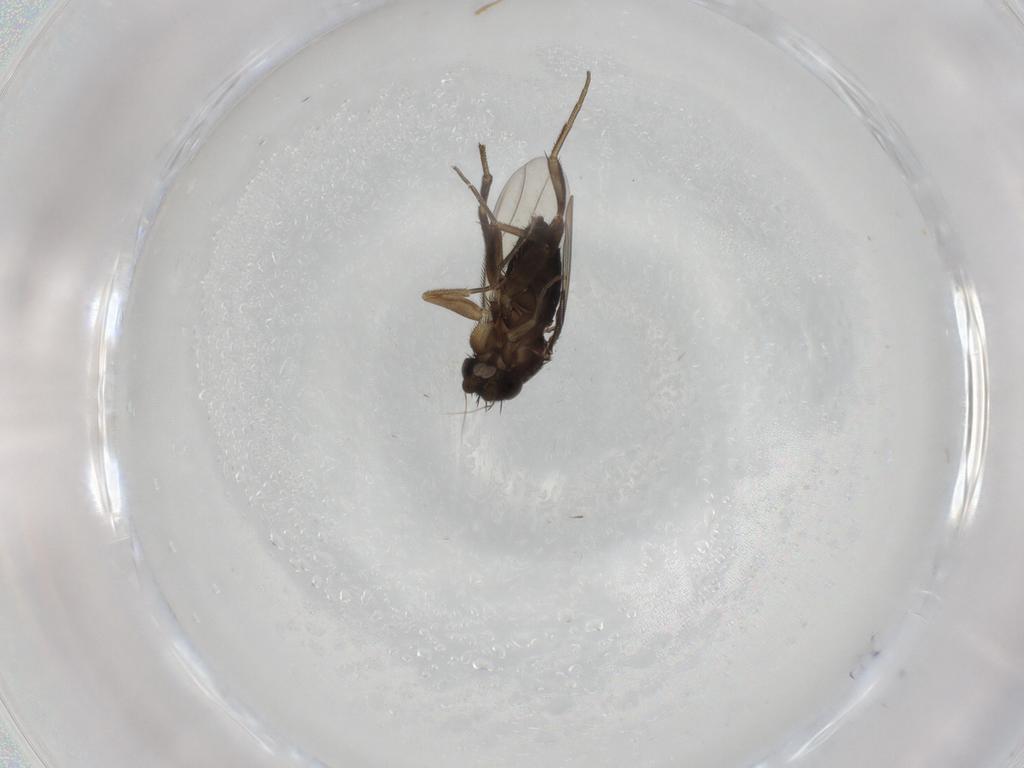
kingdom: Animalia
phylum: Arthropoda
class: Insecta
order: Diptera
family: Phoridae
